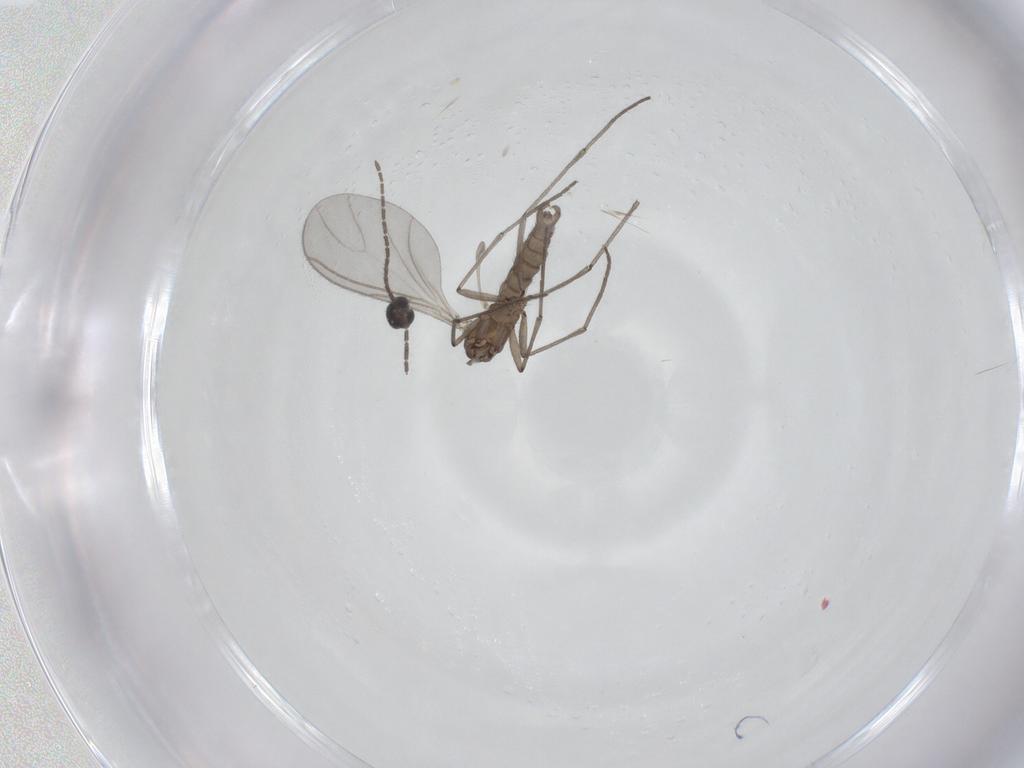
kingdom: Animalia
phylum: Arthropoda
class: Insecta
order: Diptera
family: Sciaridae
